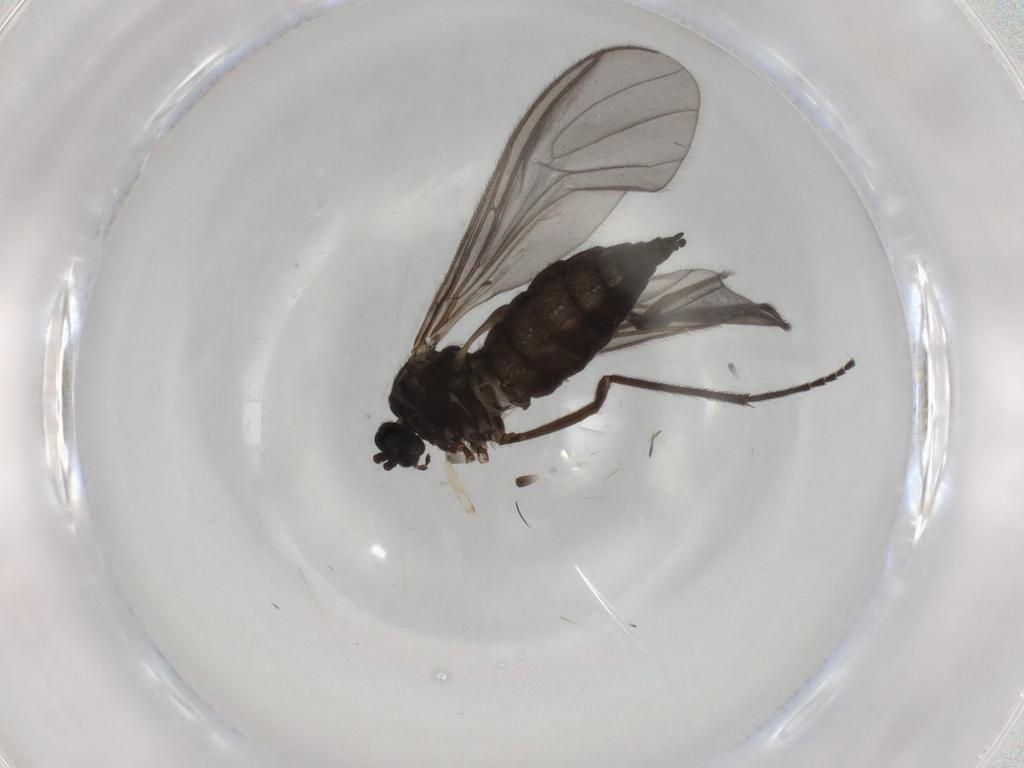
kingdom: Animalia
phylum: Arthropoda
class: Insecta
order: Diptera
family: Sciaridae
